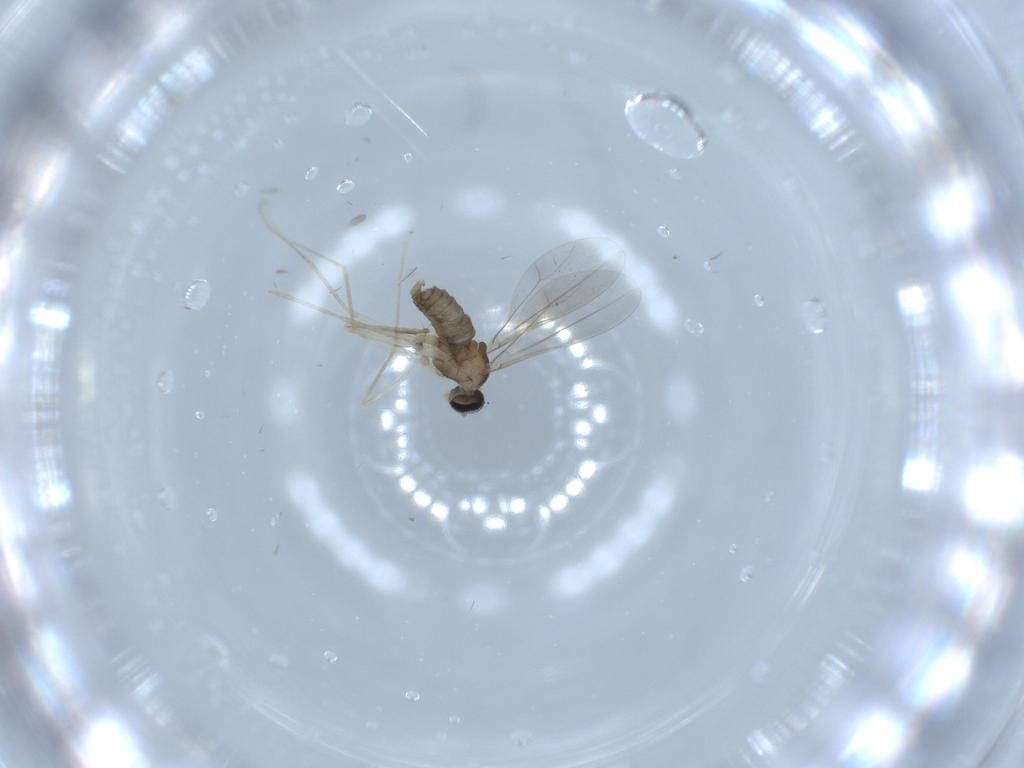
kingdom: Animalia
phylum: Arthropoda
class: Insecta
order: Diptera
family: Cecidomyiidae
